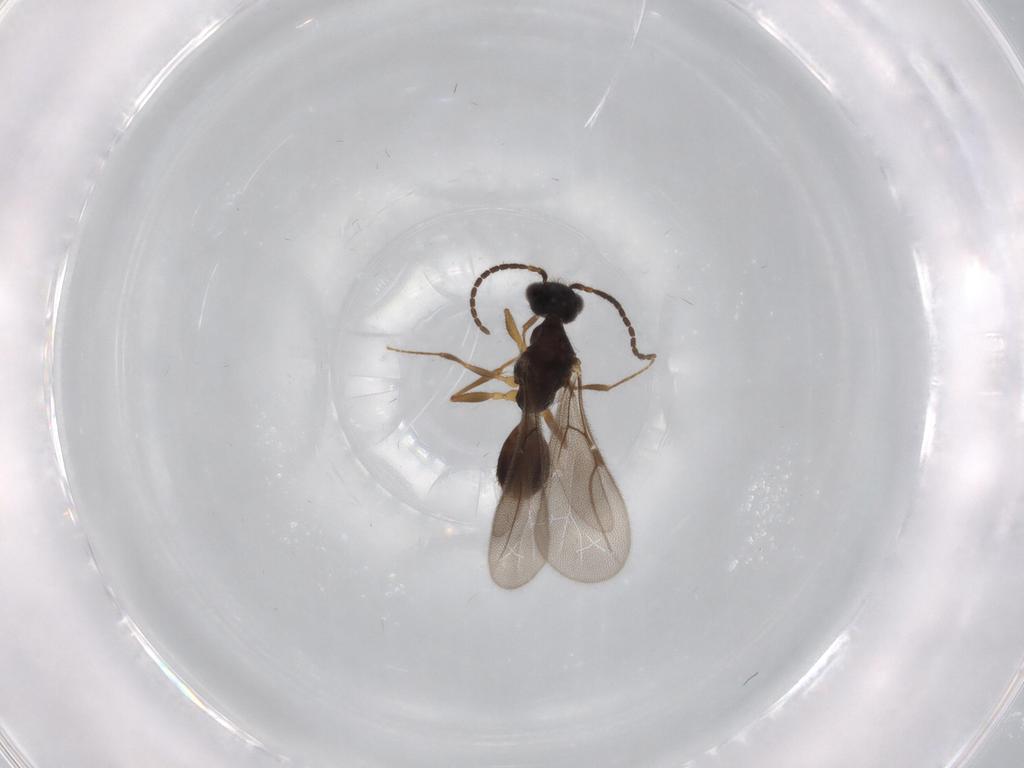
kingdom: Animalia
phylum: Arthropoda
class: Insecta
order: Hymenoptera
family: Bethylidae
